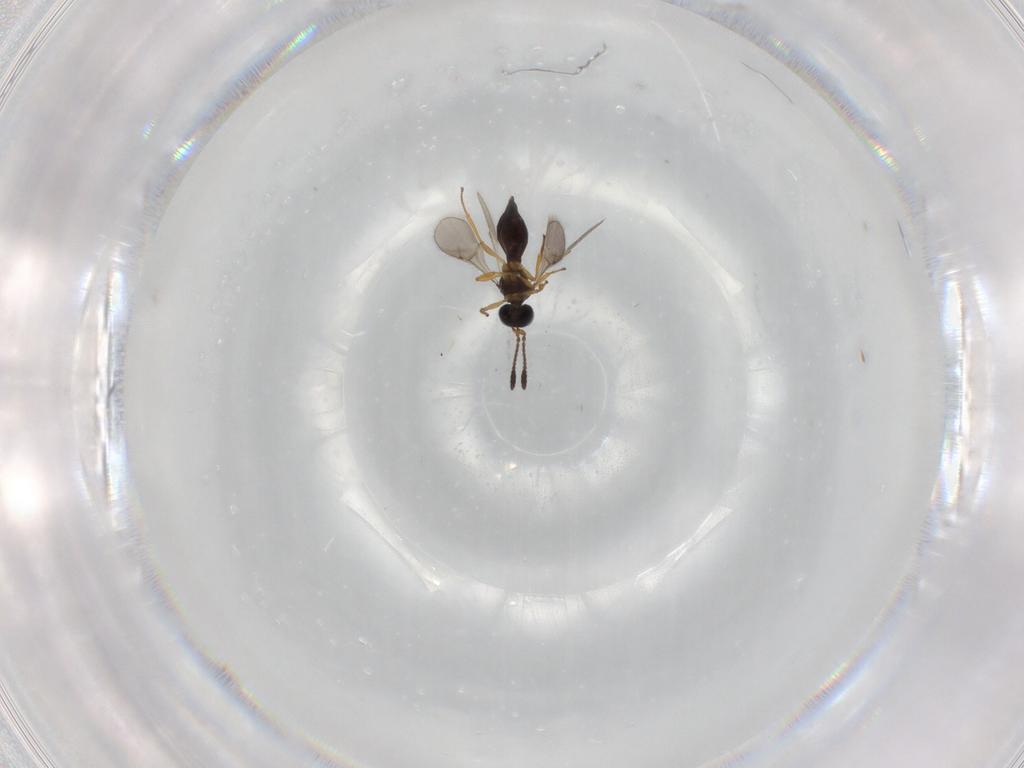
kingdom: Animalia
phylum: Arthropoda
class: Insecta
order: Hymenoptera
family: Scelionidae
